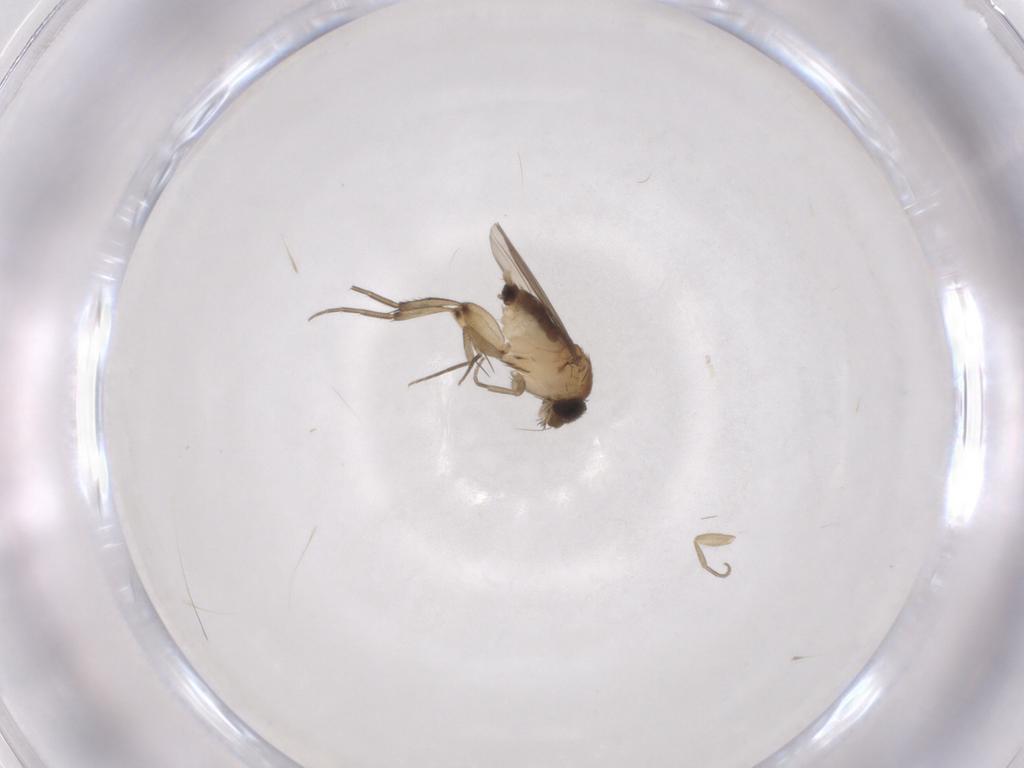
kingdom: Animalia
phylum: Arthropoda
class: Insecta
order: Diptera
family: Phoridae
